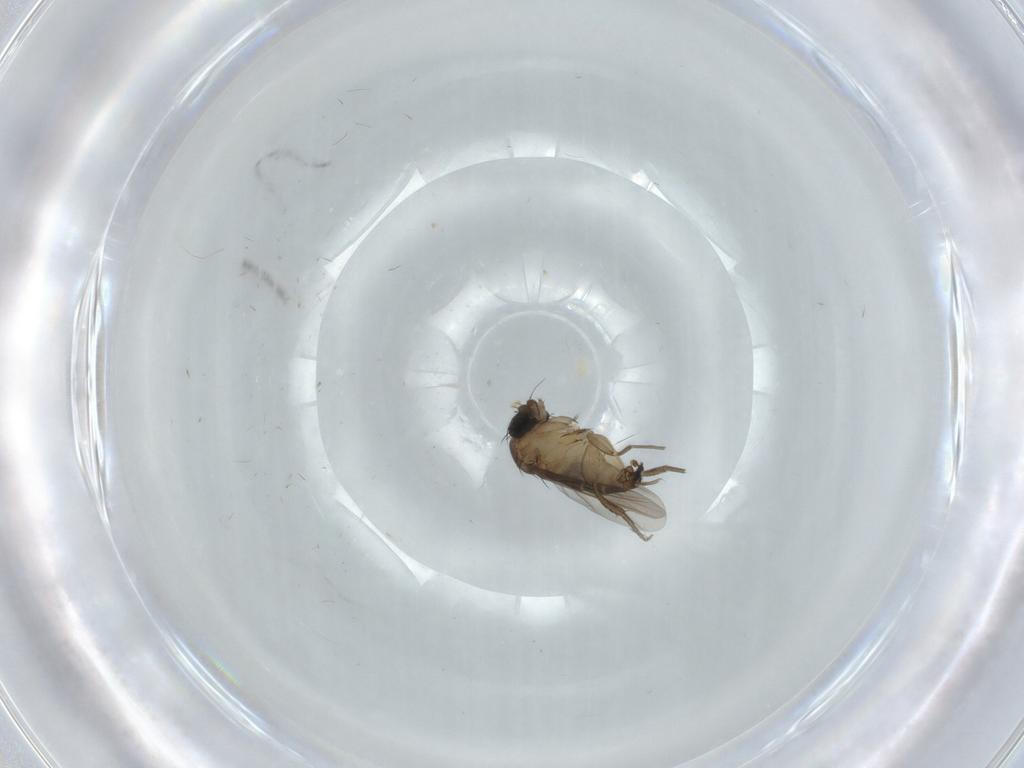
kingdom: Animalia
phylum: Arthropoda
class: Insecta
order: Diptera
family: Phoridae
